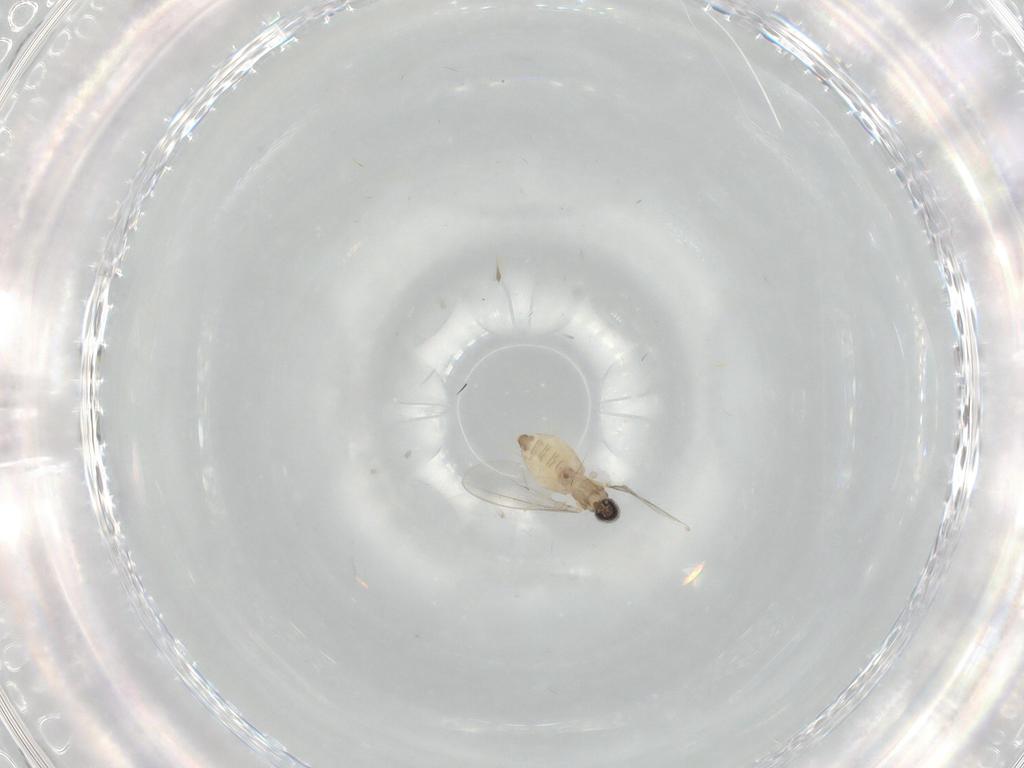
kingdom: Animalia
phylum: Arthropoda
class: Insecta
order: Diptera
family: Cecidomyiidae
